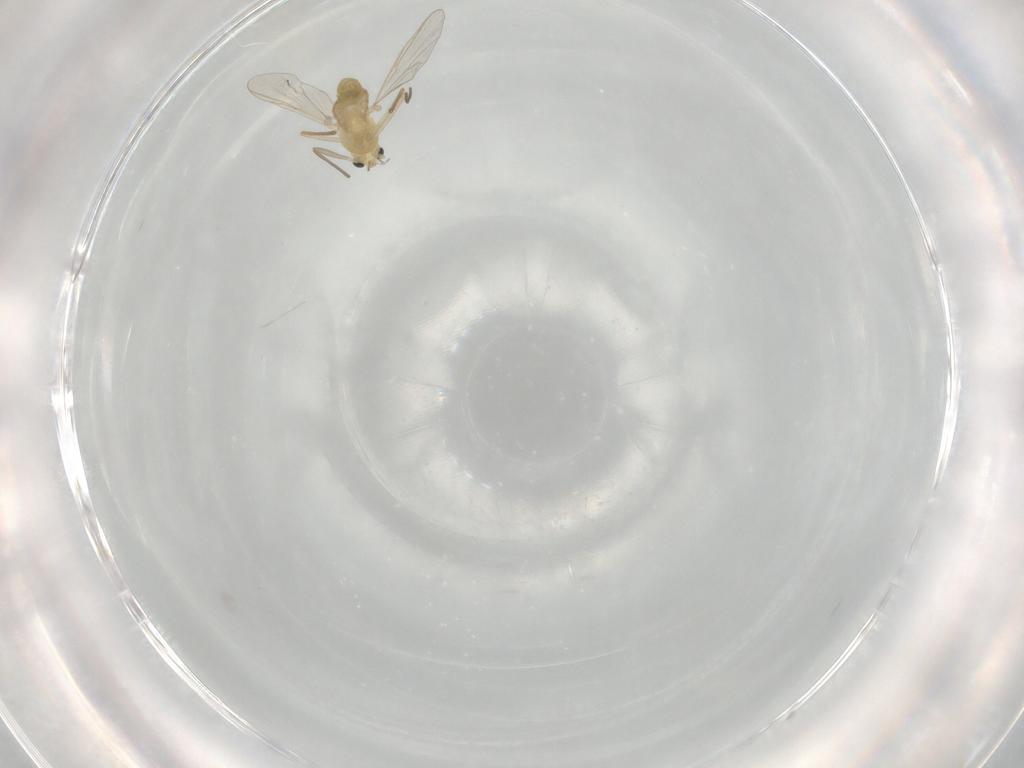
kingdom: Animalia
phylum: Arthropoda
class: Insecta
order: Diptera
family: Chironomidae
